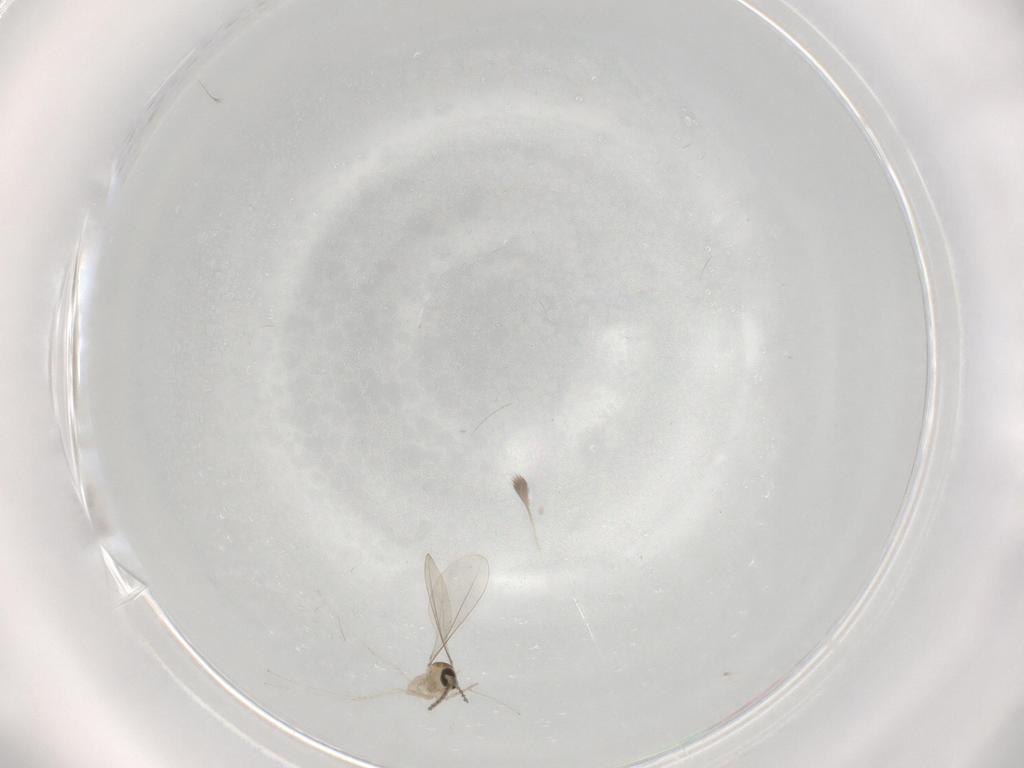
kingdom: Animalia
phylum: Arthropoda
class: Insecta
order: Diptera
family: Cecidomyiidae
